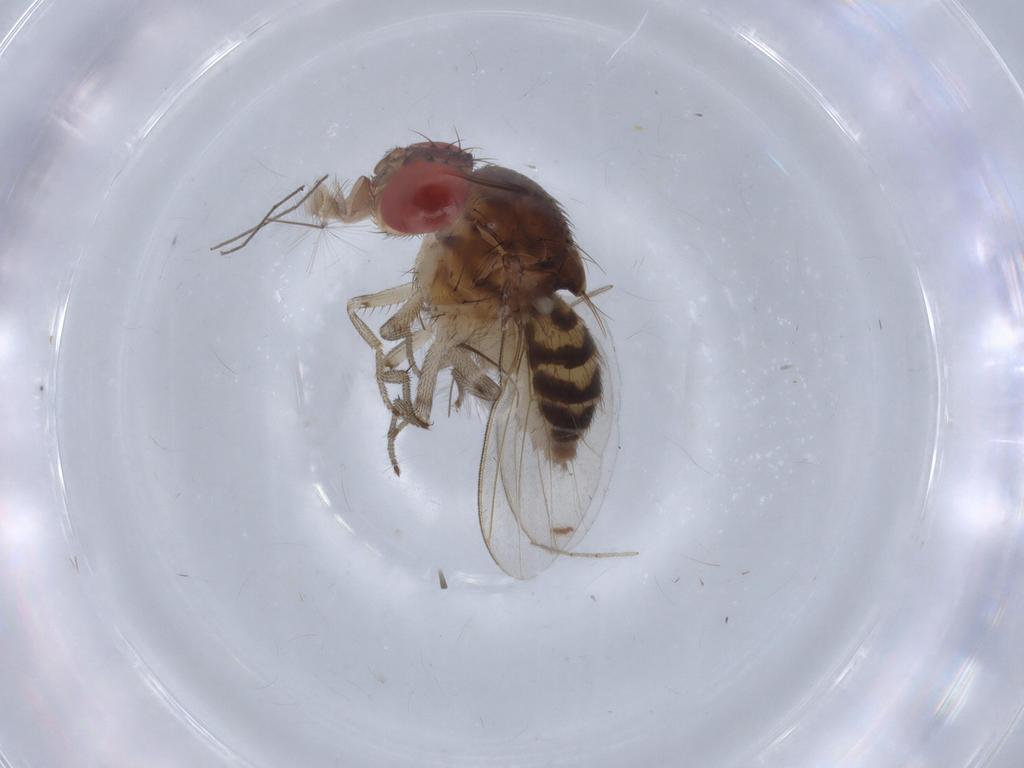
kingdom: Animalia
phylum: Arthropoda
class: Insecta
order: Diptera
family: Drosophilidae
